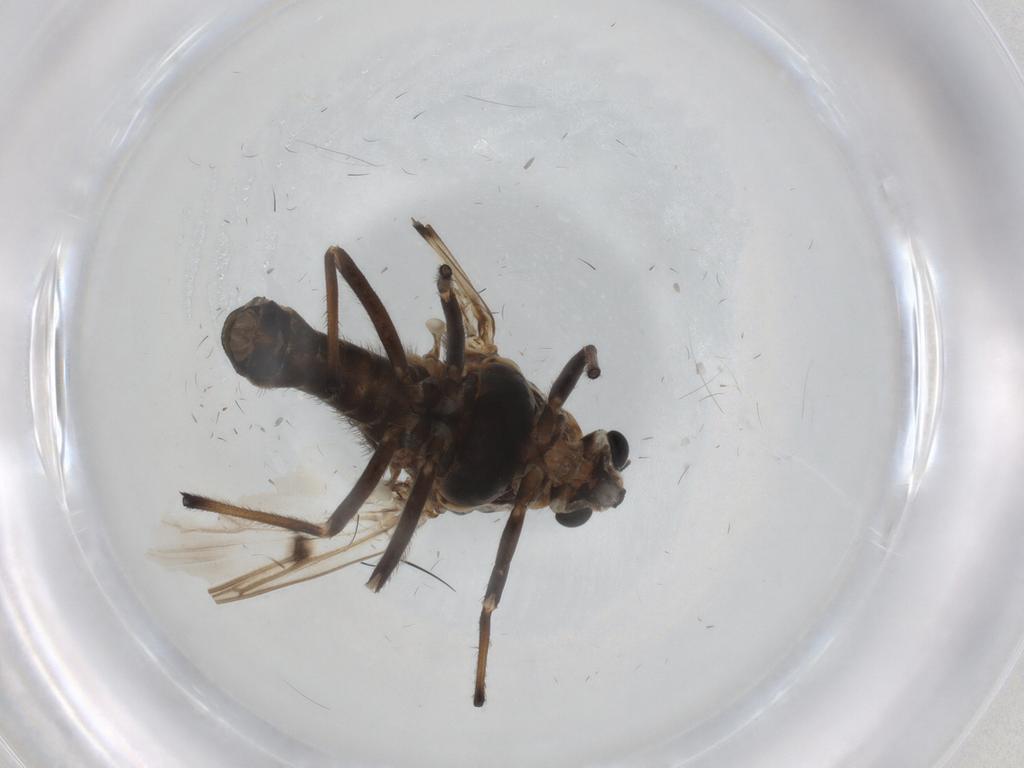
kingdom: Animalia
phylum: Arthropoda
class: Insecta
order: Diptera
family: Chironomidae
